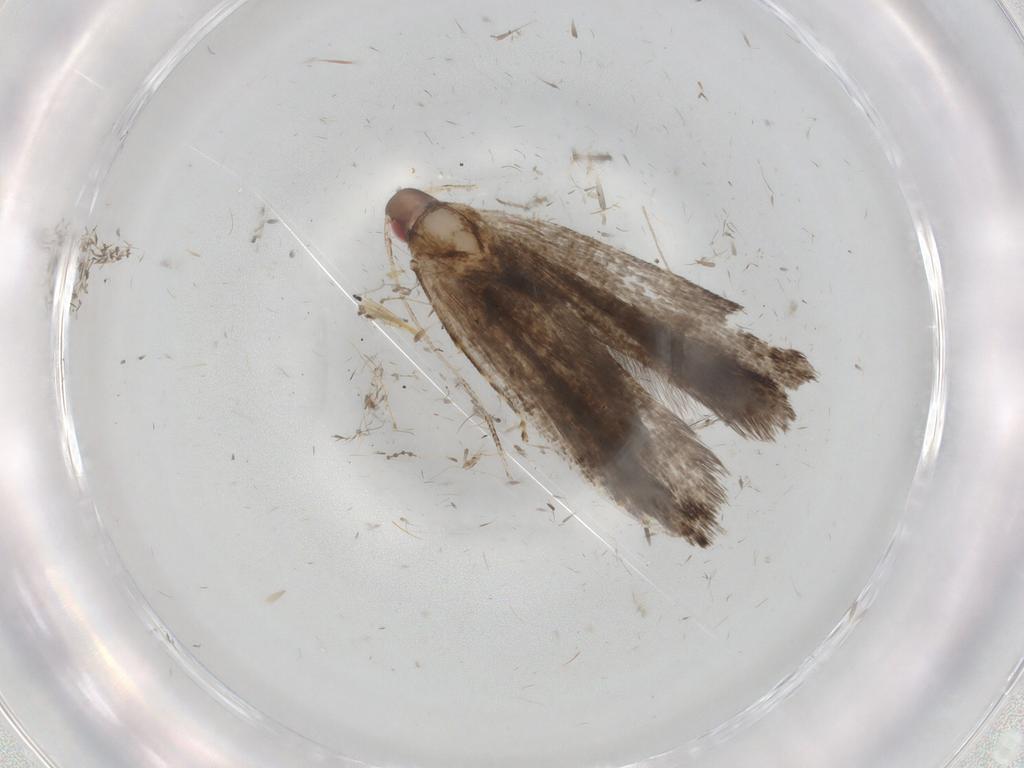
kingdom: Animalia
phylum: Arthropoda
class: Insecta
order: Lepidoptera
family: Gelechiidae
